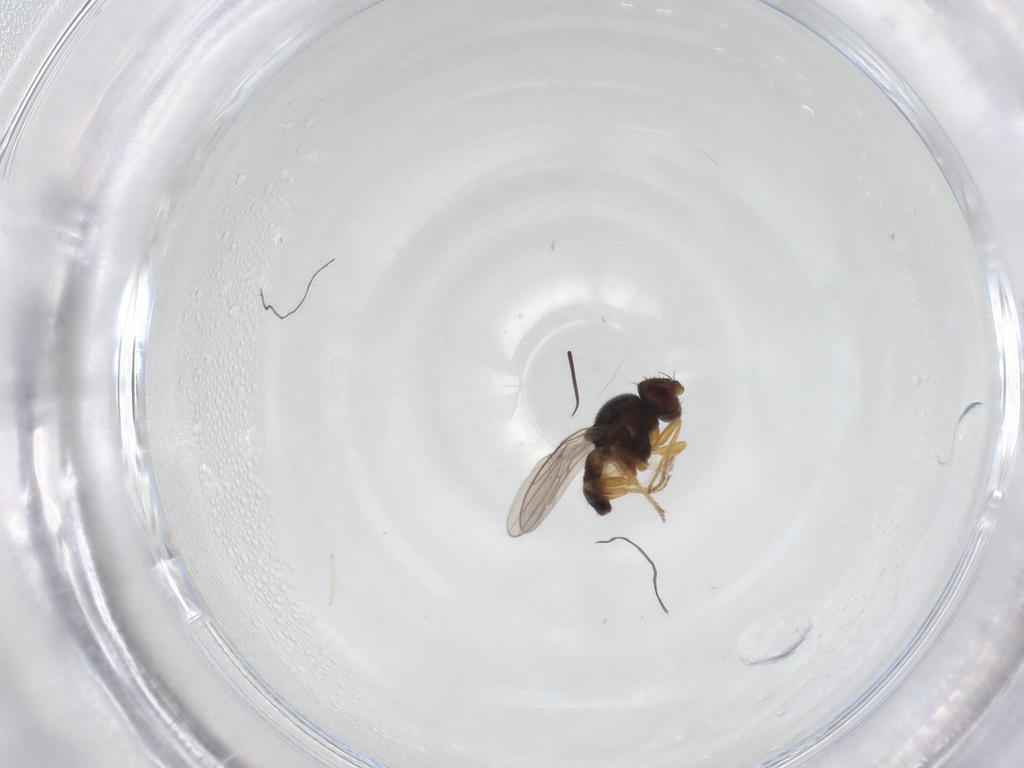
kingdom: Animalia
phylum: Arthropoda
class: Insecta
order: Diptera
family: Chloropidae
